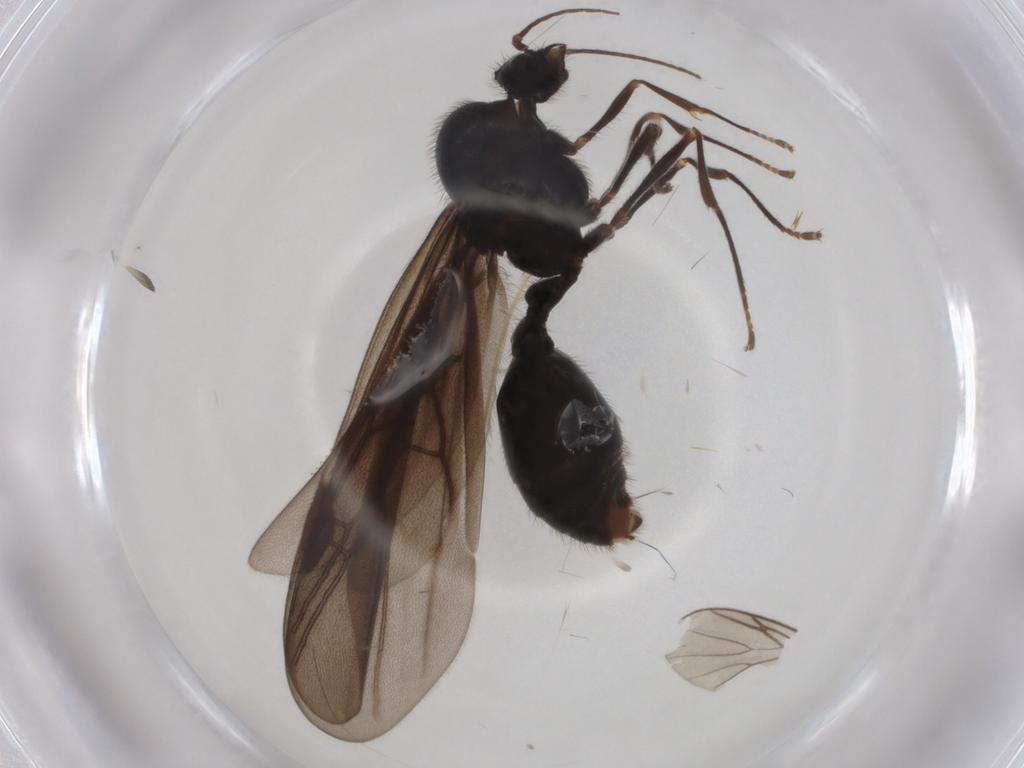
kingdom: Animalia
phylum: Arthropoda
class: Insecta
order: Hymenoptera
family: Formicidae
